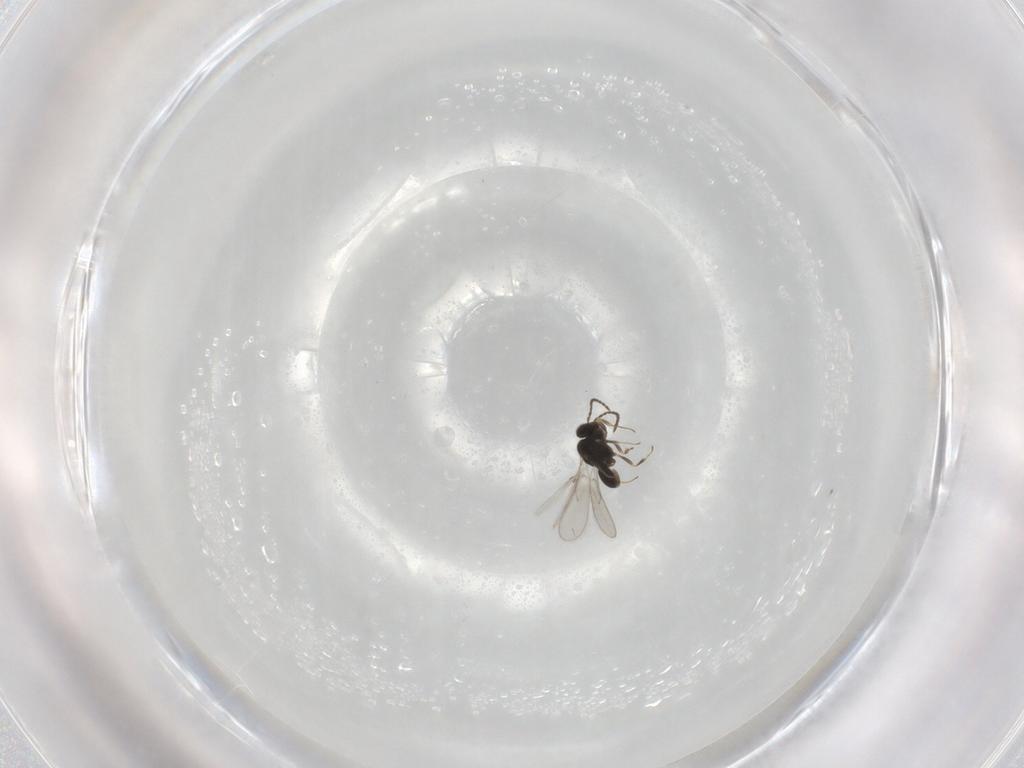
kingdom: Animalia
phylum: Arthropoda
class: Insecta
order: Hymenoptera
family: Scelionidae
